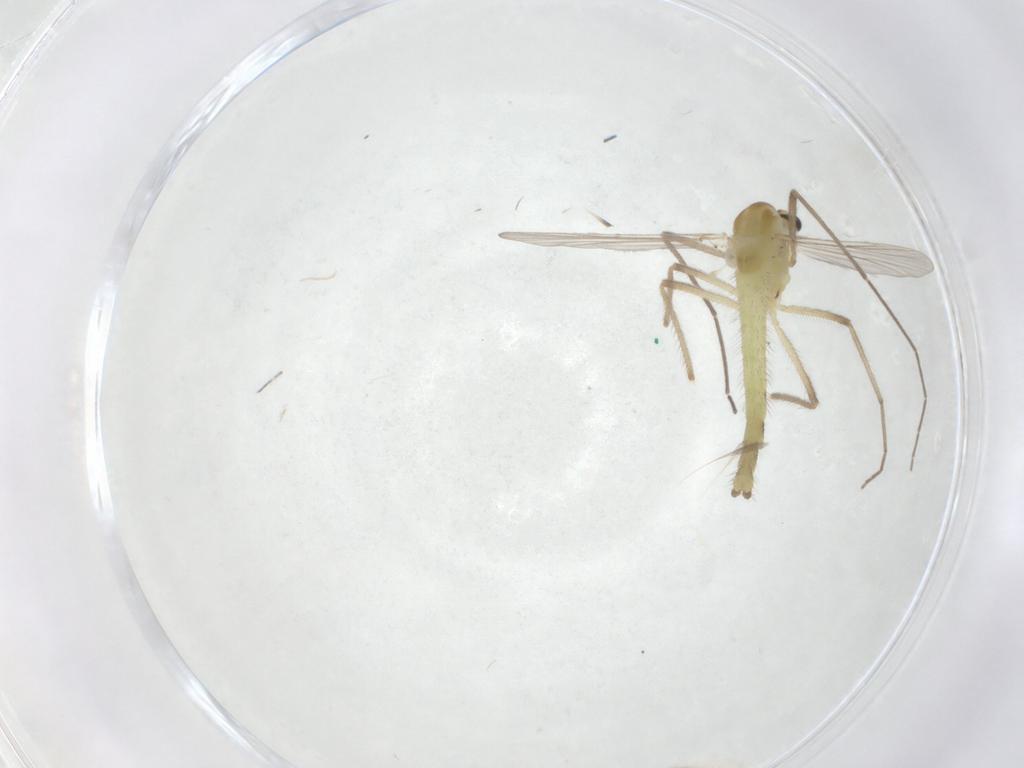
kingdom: Animalia
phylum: Arthropoda
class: Insecta
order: Diptera
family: Chironomidae
